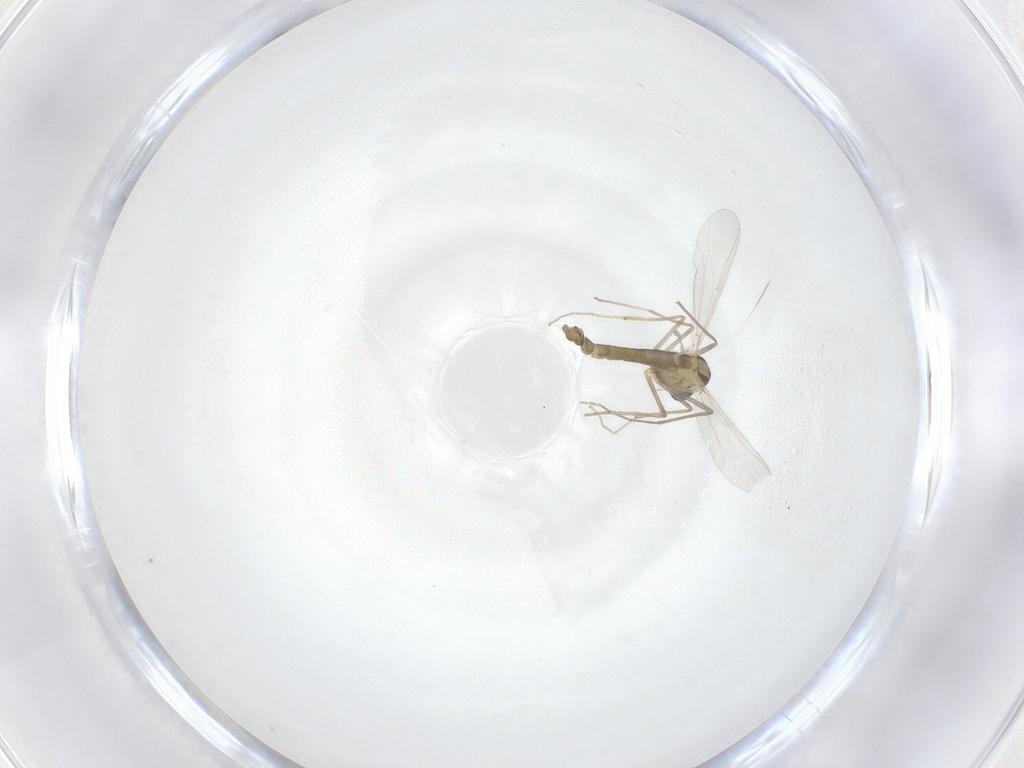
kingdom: Animalia
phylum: Arthropoda
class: Insecta
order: Diptera
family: Chironomidae
